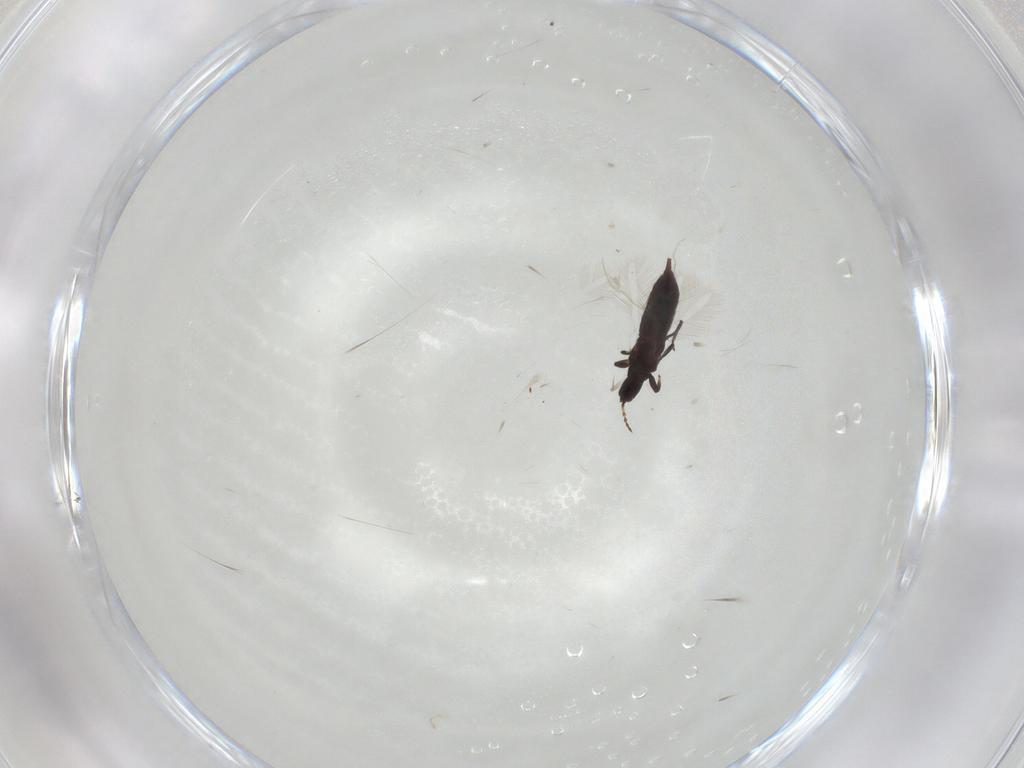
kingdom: Animalia
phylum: Arthropoda
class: Insecta
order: Thysanoptera
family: Phlaeothripidae
